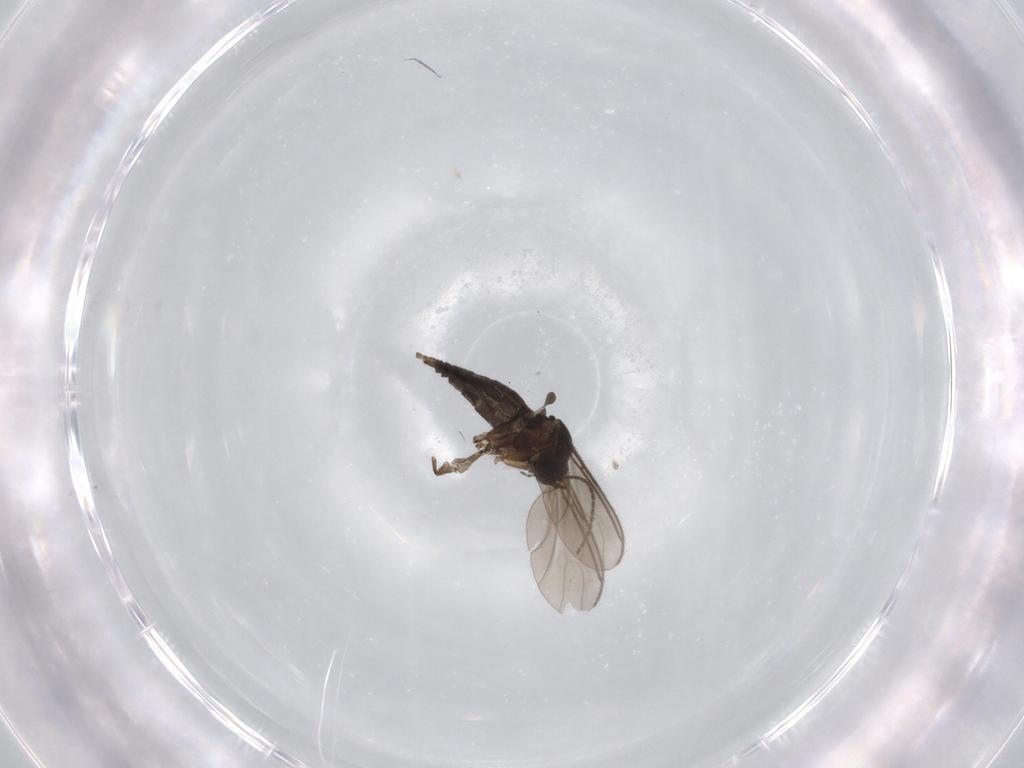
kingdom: Animalia
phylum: Arthropoda
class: Insecta
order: Diptera
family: Sciaridae
